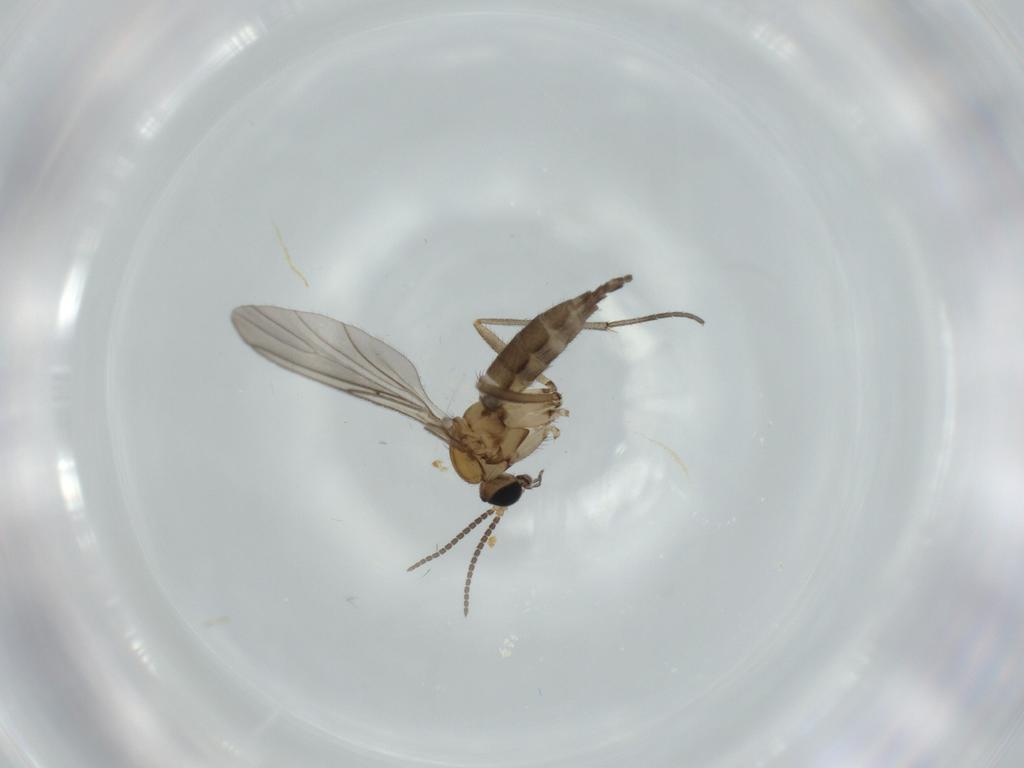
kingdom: Animalia
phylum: Arthropoda
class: Insecta
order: Diptera
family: Sciaridae
